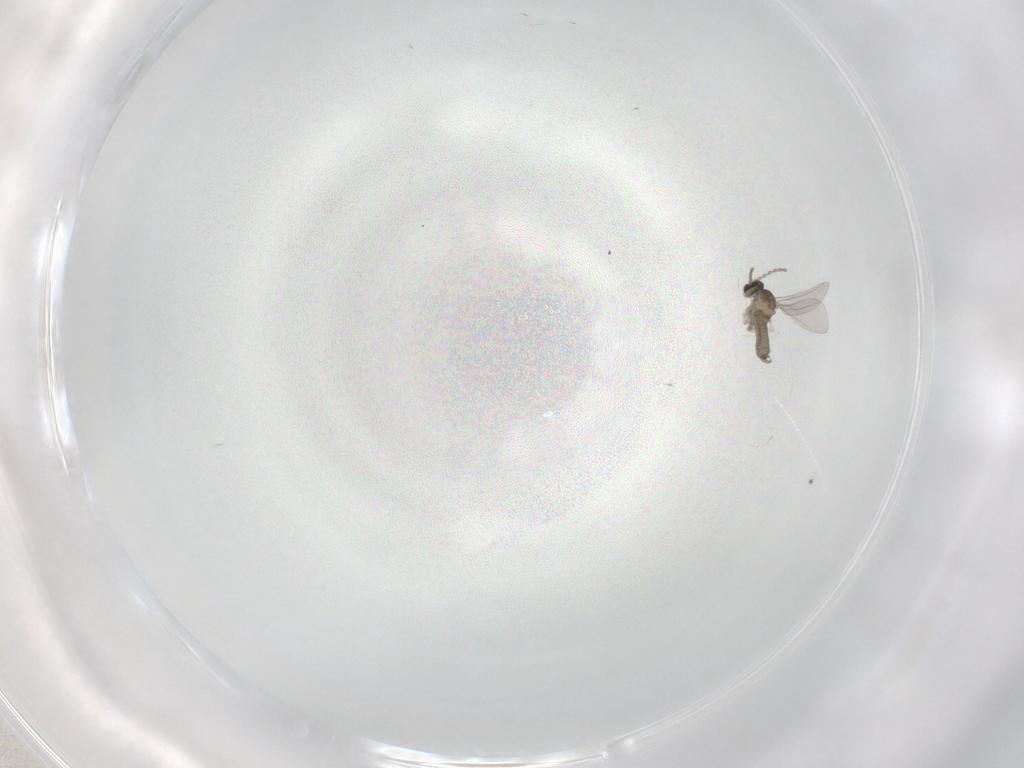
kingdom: Animalia
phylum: Arthropoda
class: Insecta
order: Diptera
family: Cecidomyiidae
